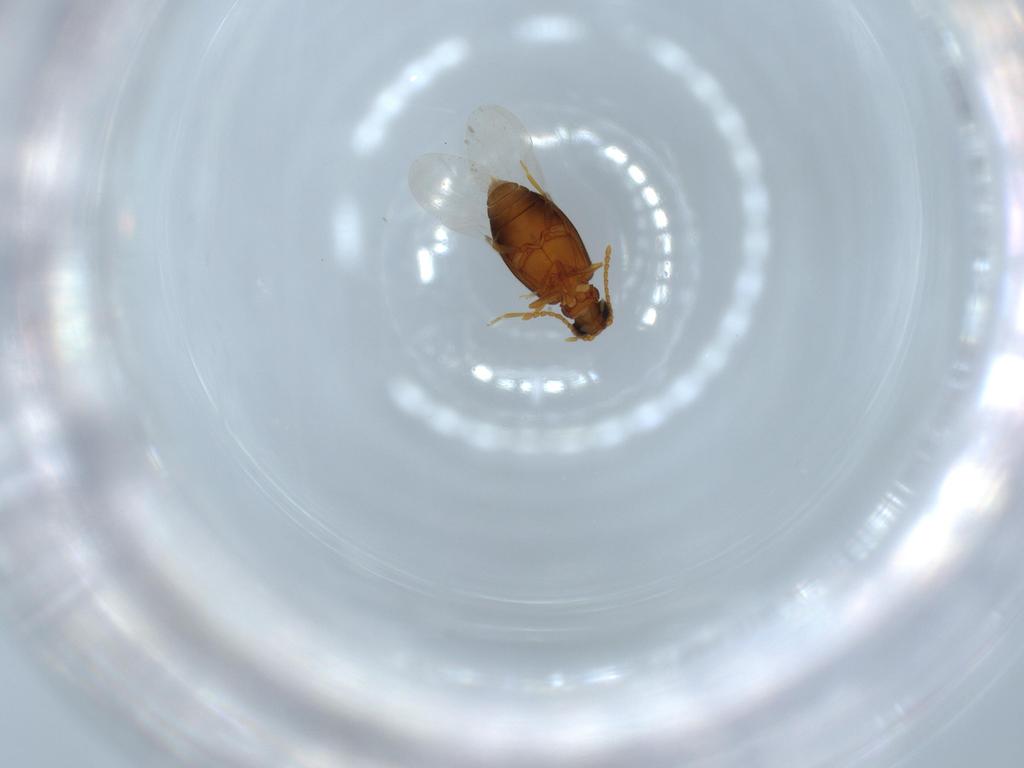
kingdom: Animalia
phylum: Arthropoda
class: Insecta
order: Coleoptera
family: Aderidae
